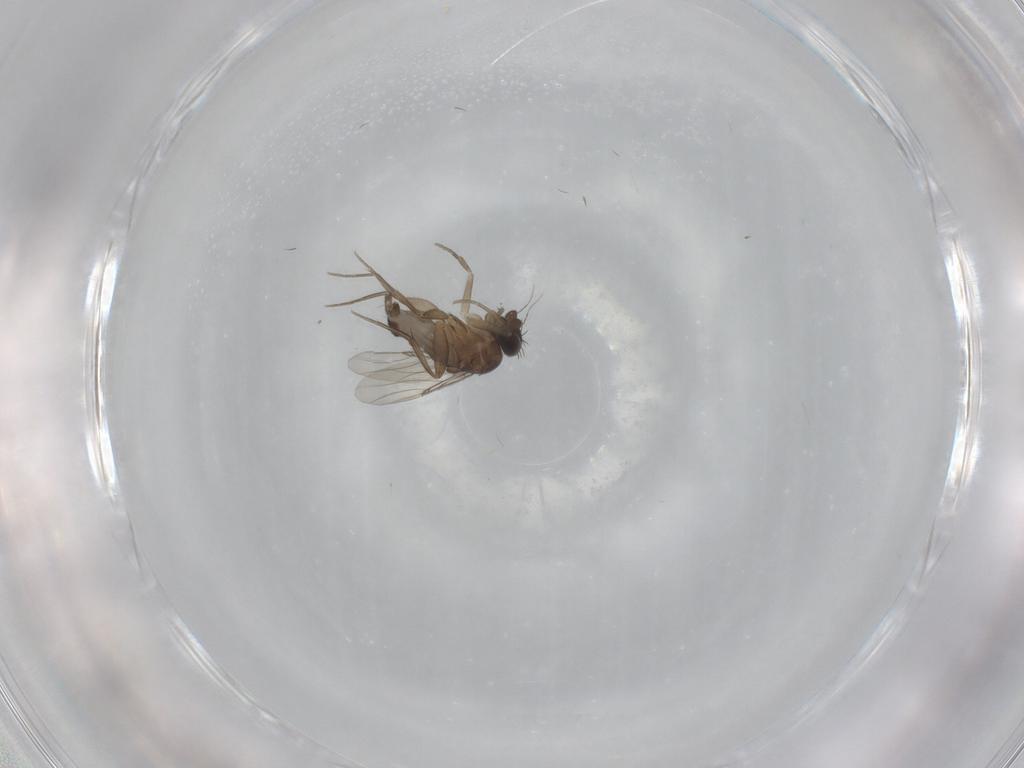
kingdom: Animalia
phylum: Arthropoda
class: Insecta
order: Diptera
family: Phoridae
